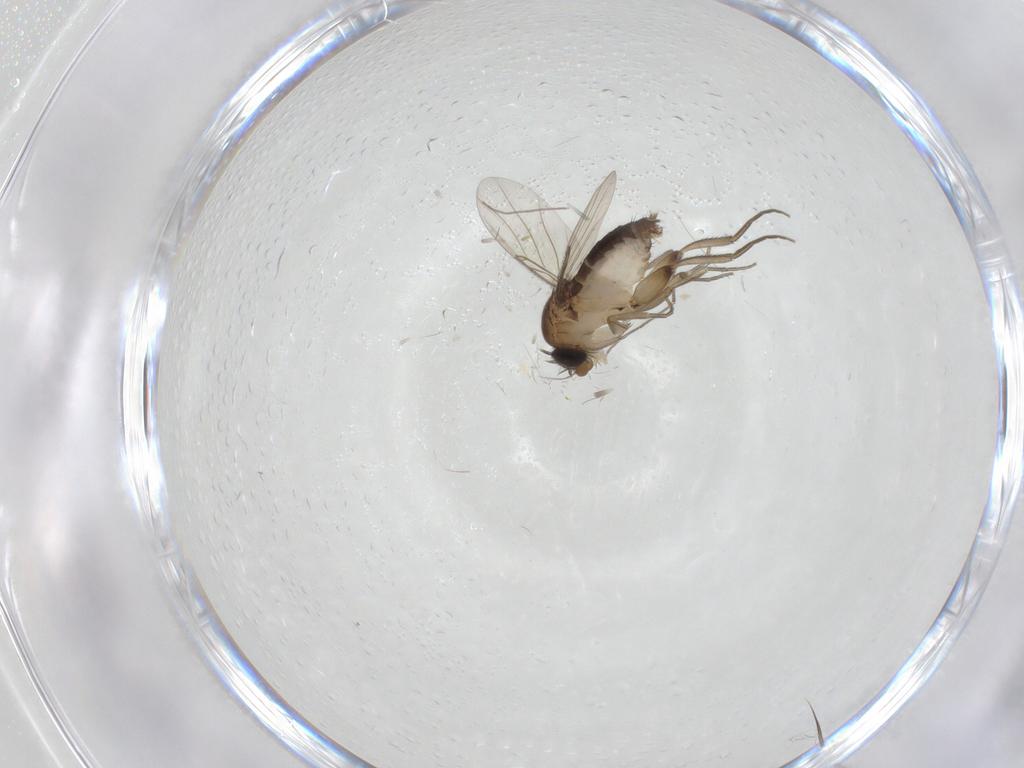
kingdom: Animalia
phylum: Arthropoda
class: Insecta
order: Diptera
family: Phoridae
